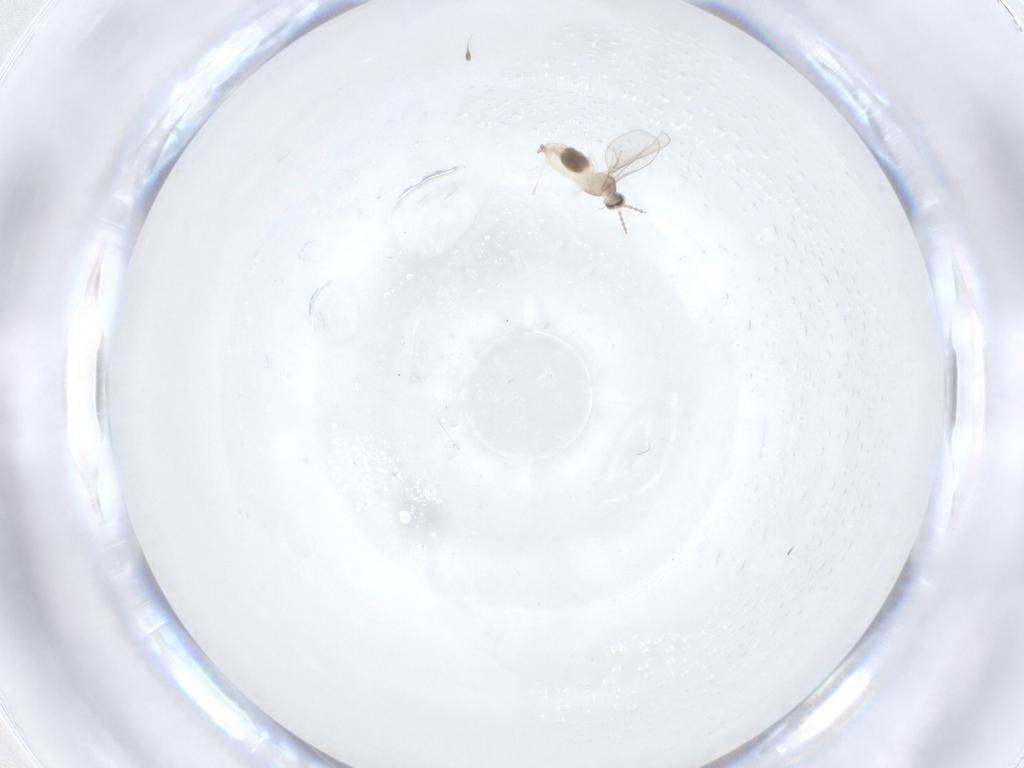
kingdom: Animalia
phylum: Arthropoda
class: Insecta
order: Diptera
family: Cecidomyiidae
